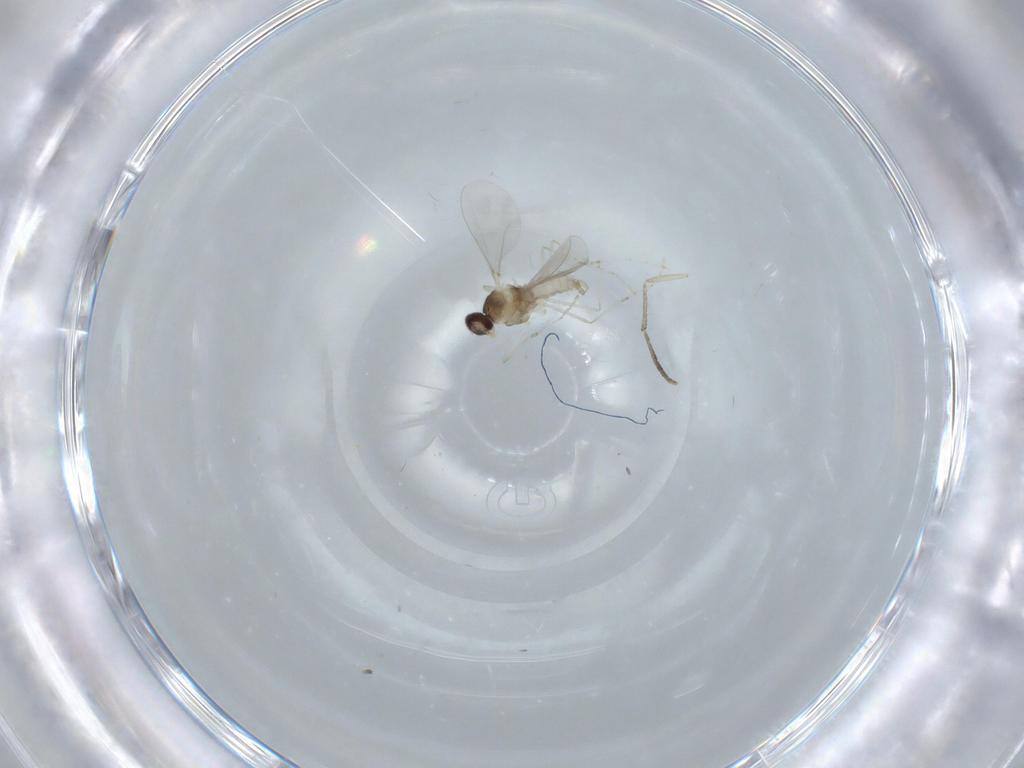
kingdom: Animalia
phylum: Arthropoda
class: Insecta
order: Diptera
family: Cecidomyiidae
